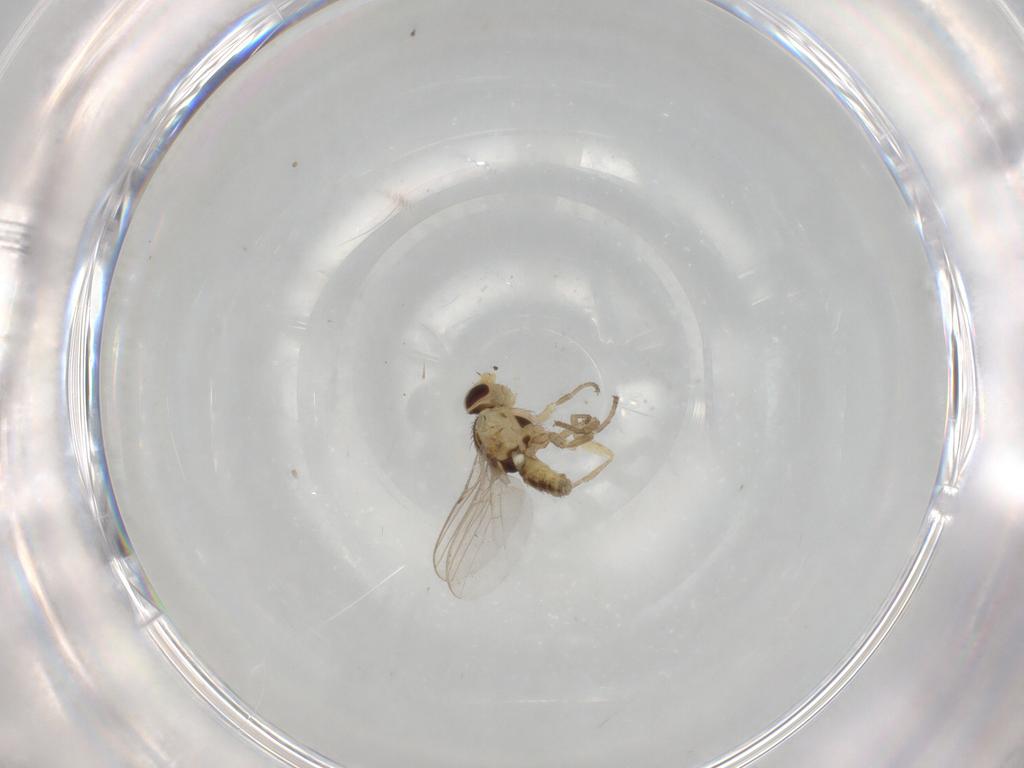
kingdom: Animalia
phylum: Arthropoda
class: Insecta
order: Diptera
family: Agromyzidae
